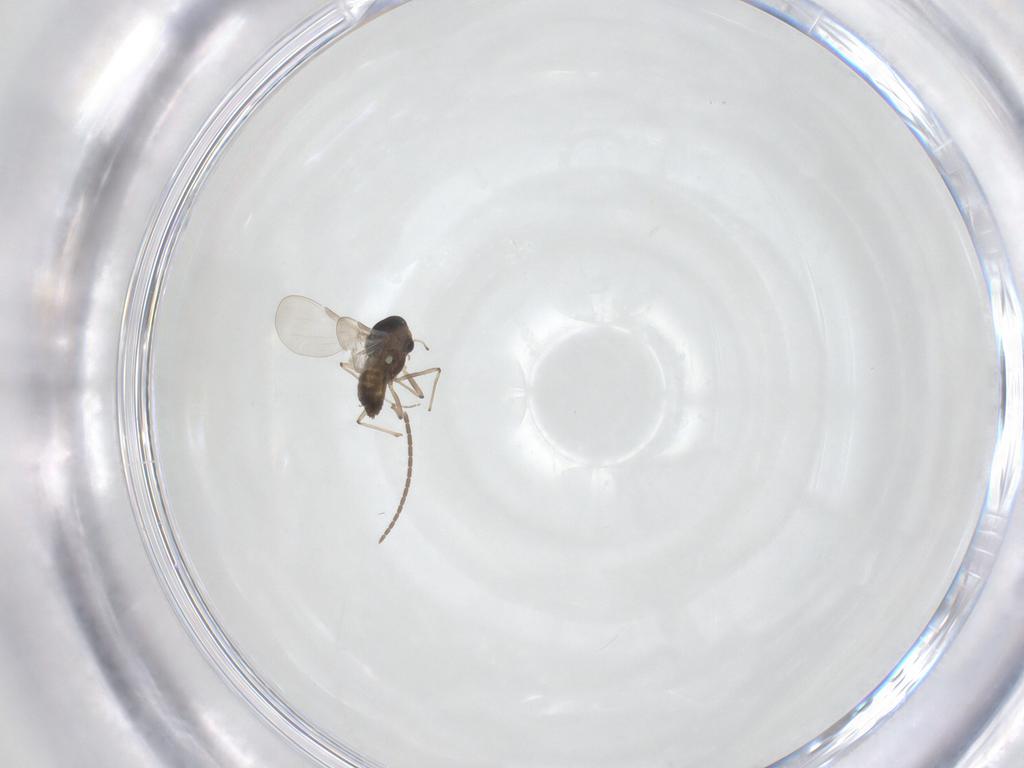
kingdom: Animalia
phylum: Arthropoda
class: Insecta
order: Diptera
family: Chironomidae
